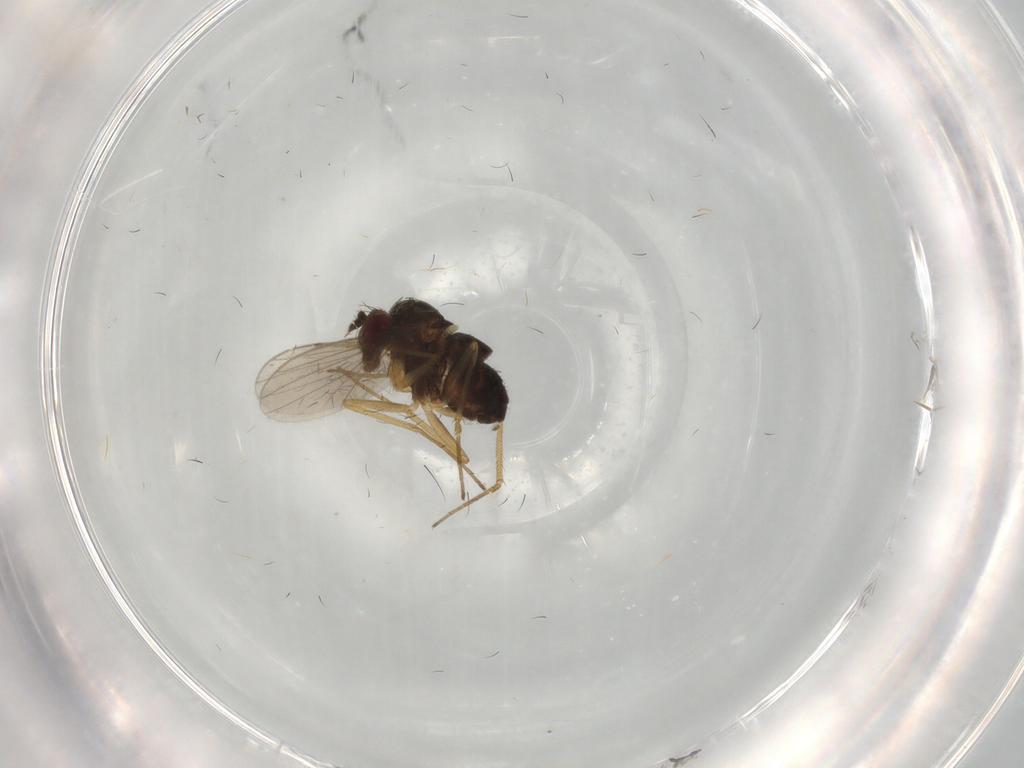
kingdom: Animalia
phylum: Arthropoda
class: Insecta
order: Diptera
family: Dolichopodidae
